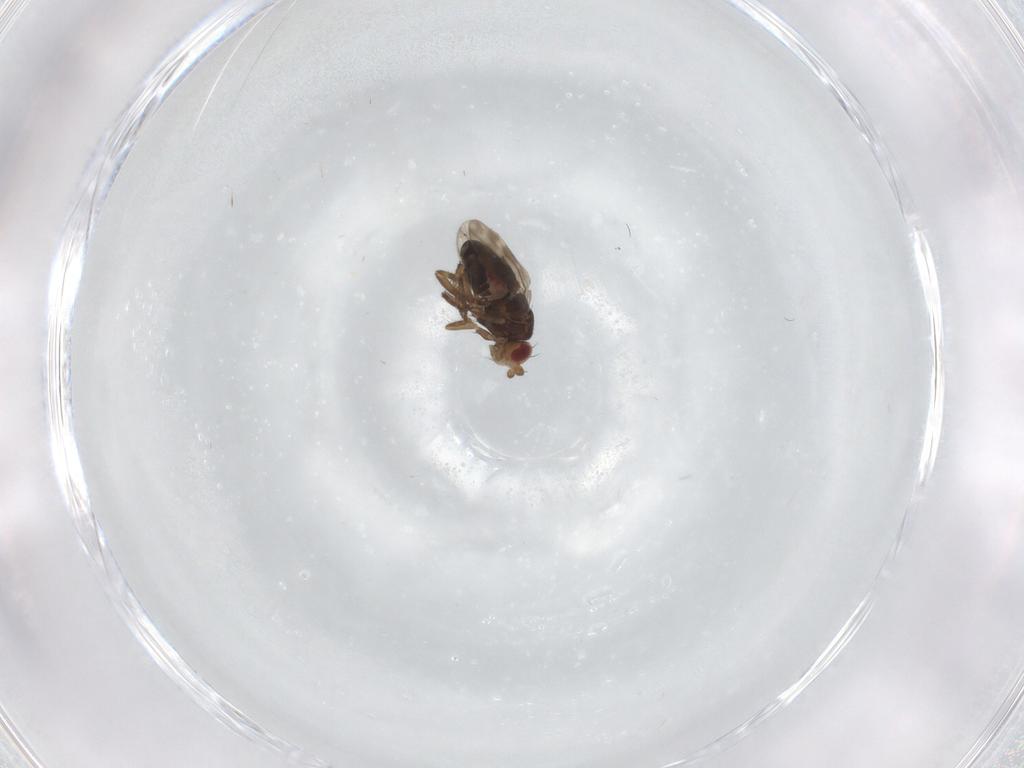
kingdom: Animalia
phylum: Arthropoda
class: Insecta
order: Diptera
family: Sphaeroceridae
